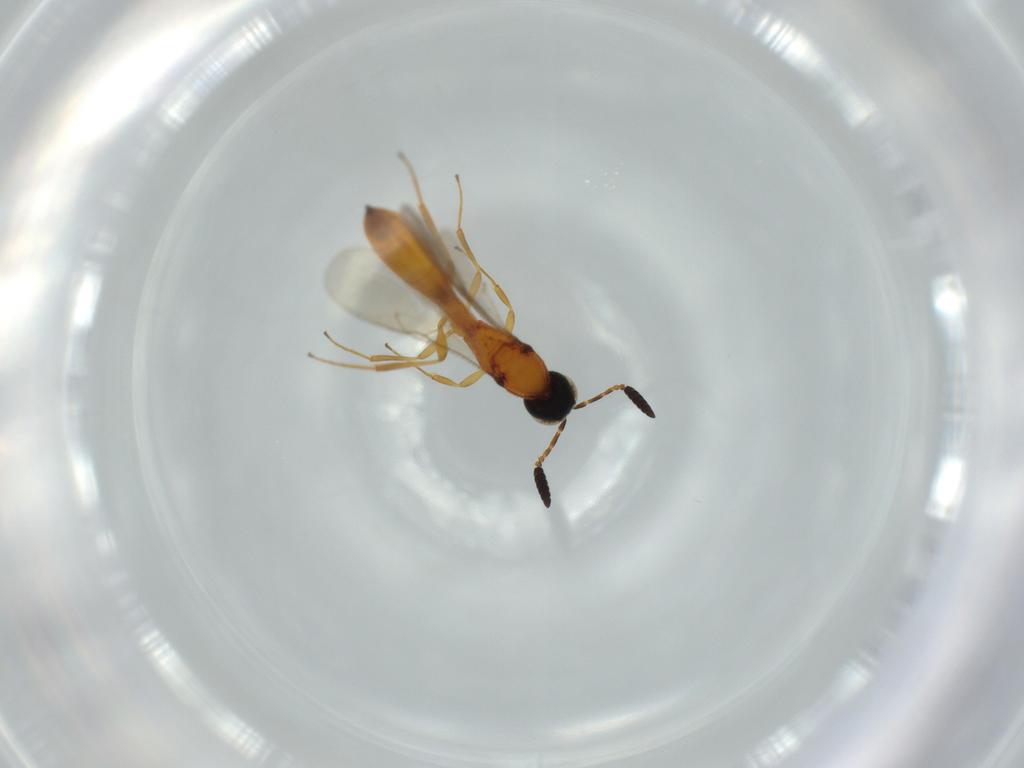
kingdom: Animalia
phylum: Arthropoda
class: Insecta
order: Hymenoptera
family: Scelionidae
